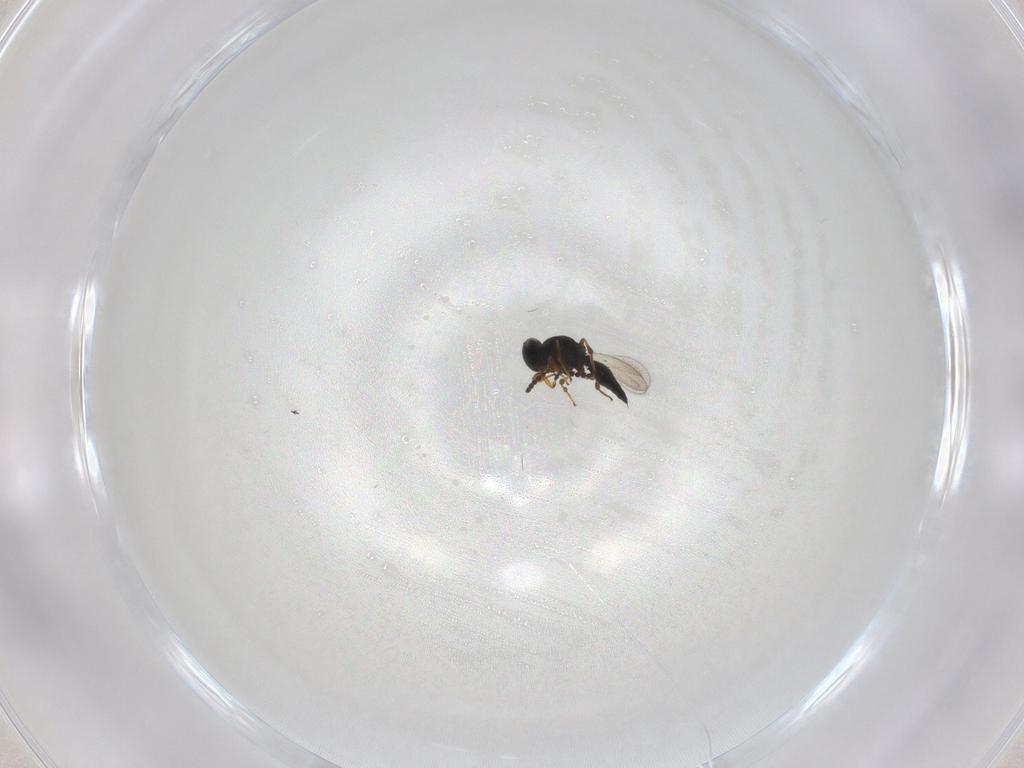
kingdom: Animalia
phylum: Arthropoda
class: Insecta
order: Hymenoptera
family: Platygastridae
